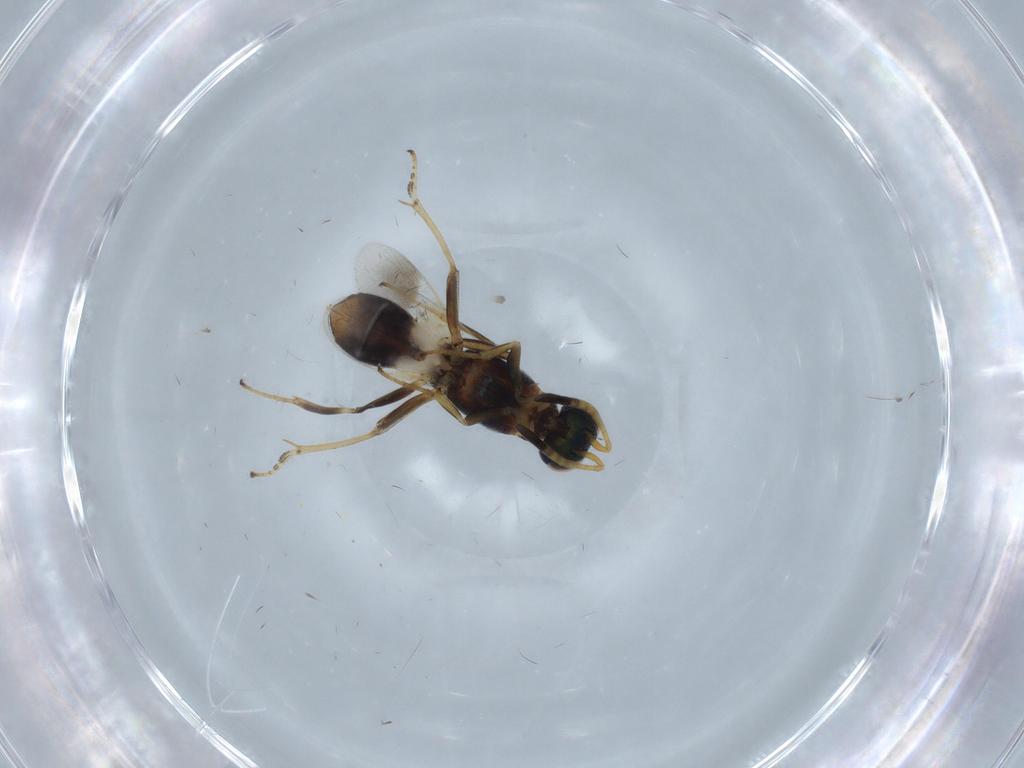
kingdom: Animalia
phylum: Arthropoda
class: Insecta
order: Hymenoptera
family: Eupelmidae
